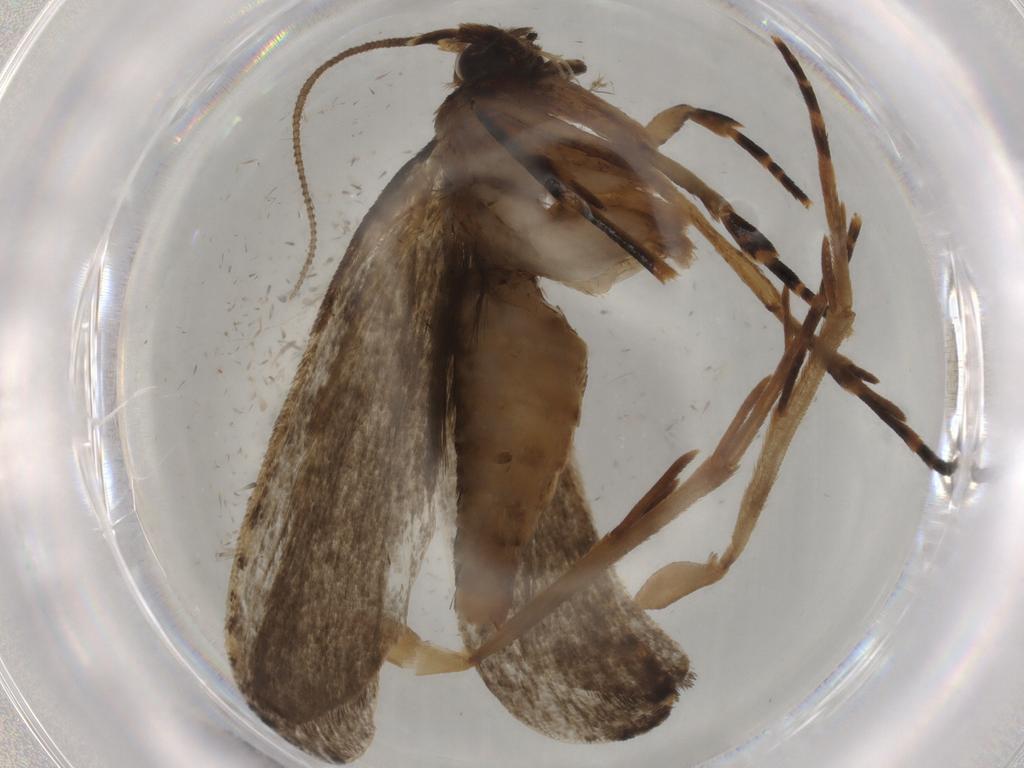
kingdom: Animalia
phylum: Arthropoda
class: Insecta
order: Lepidoptera
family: Tineidae
